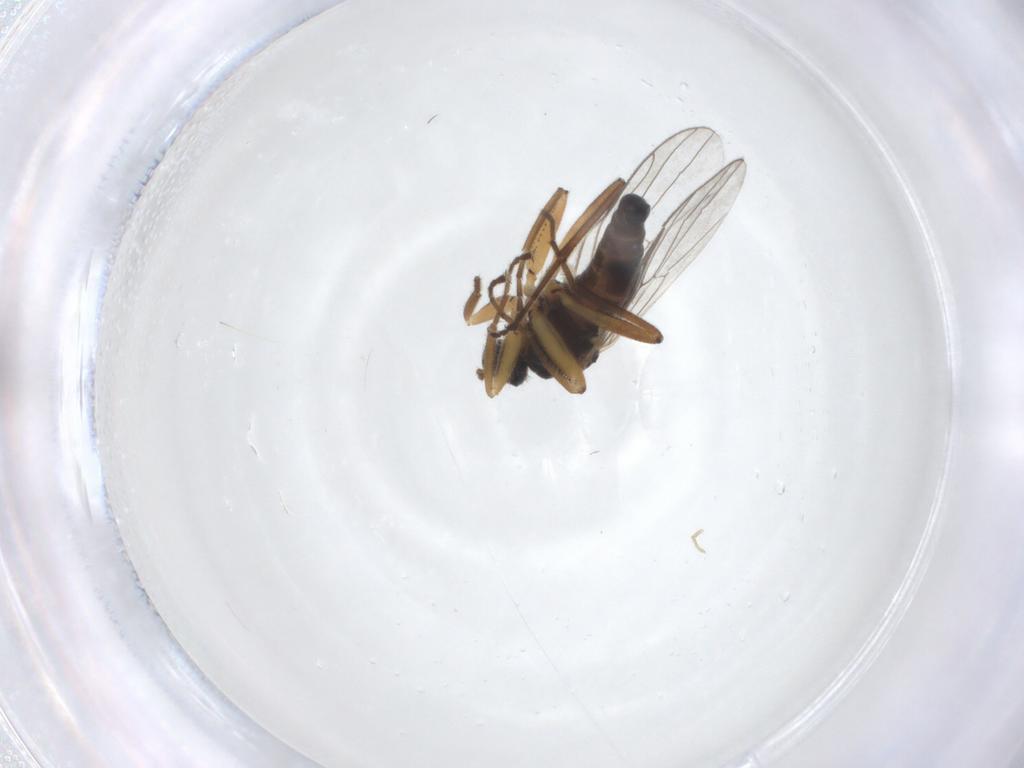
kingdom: Animalia
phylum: Arthropoda
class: Insecta
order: Diptera
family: Hybotidae
